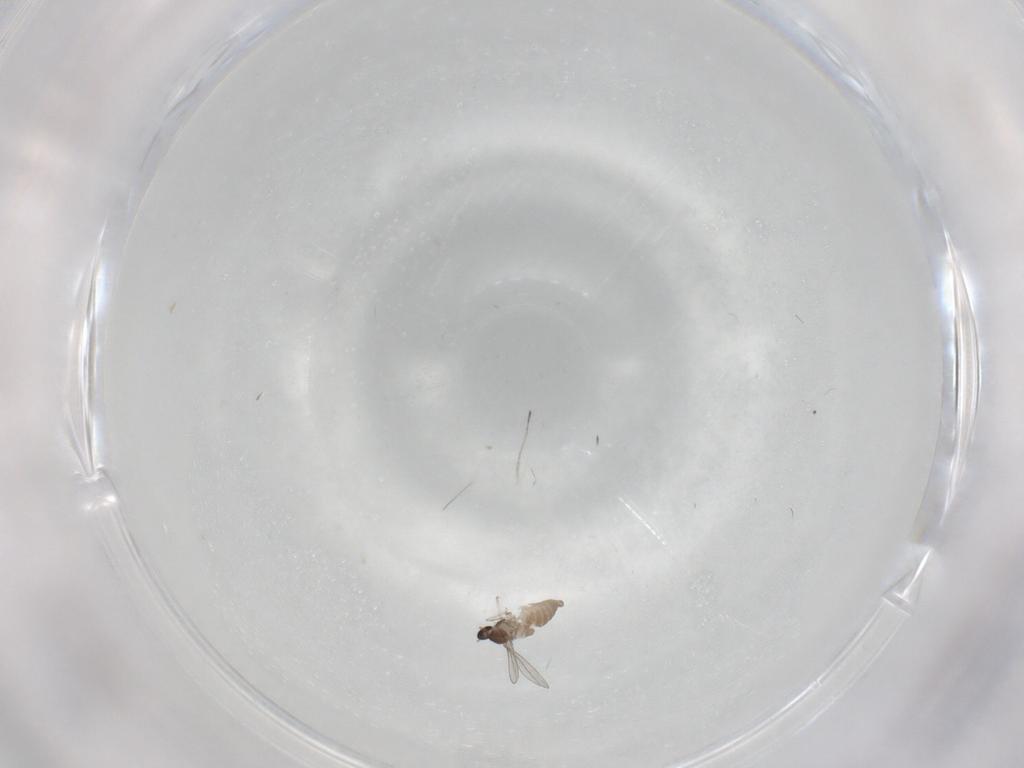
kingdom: Animalia
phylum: Arthropoda
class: Insecta
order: Diptera
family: Cecidomyiidae
